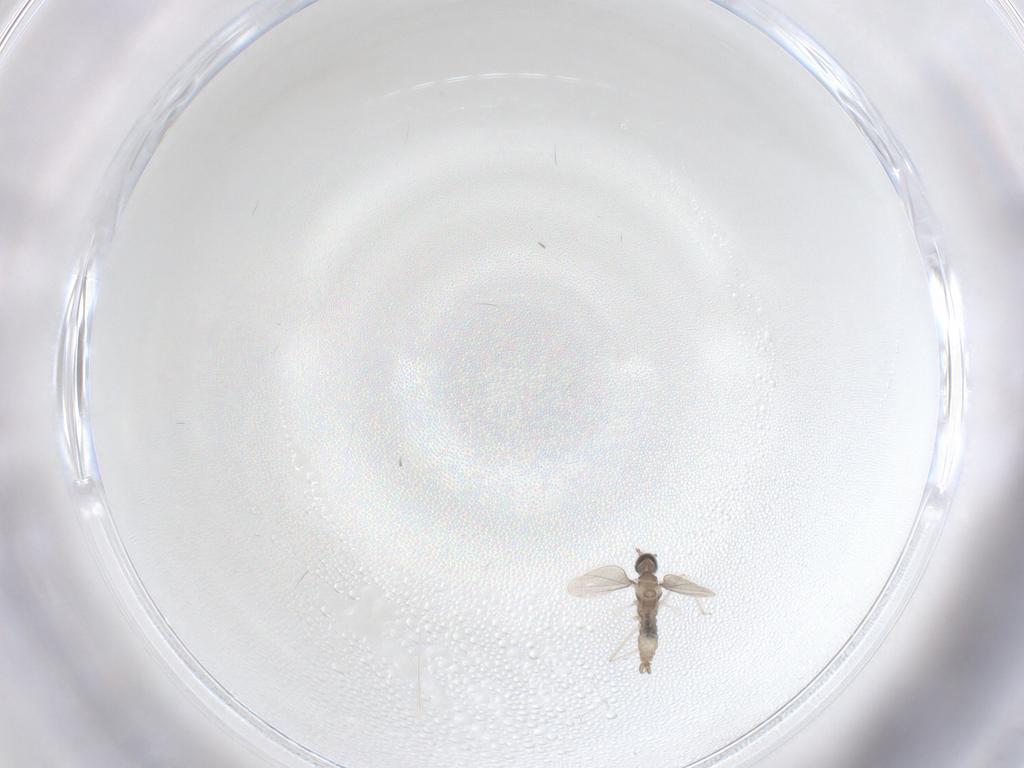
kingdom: Animalia
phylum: Arthropoda
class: Insecta
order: Diptera
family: Cecidomyiidae
